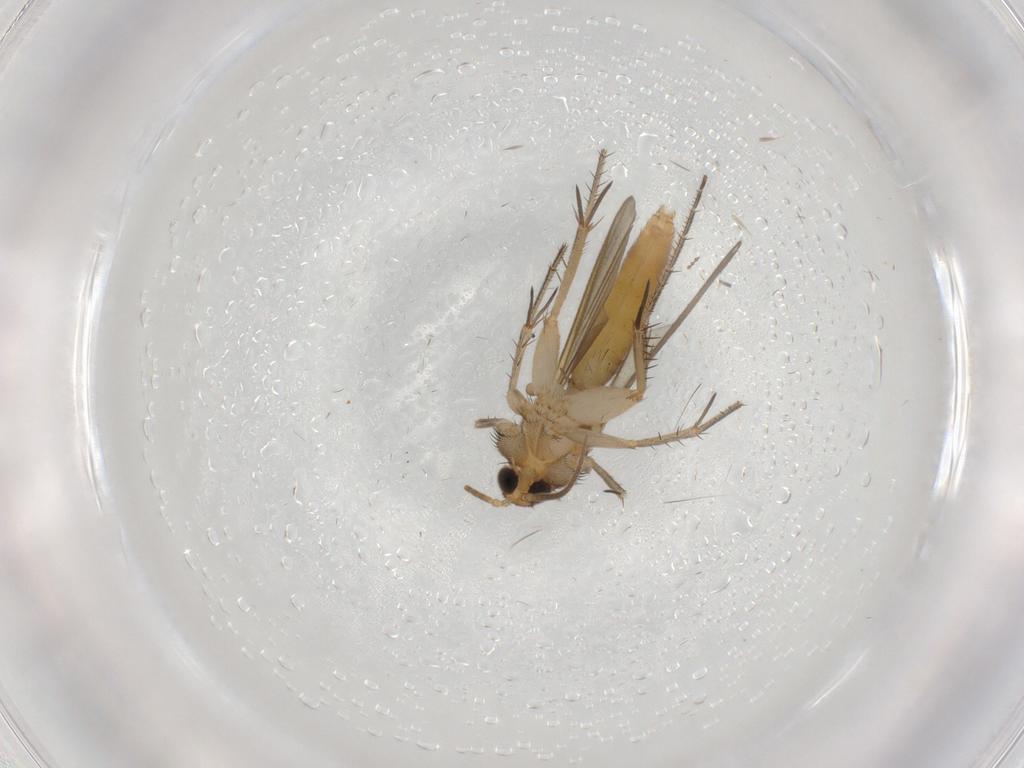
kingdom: Animalia
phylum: Arthropoda
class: Insecta
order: Diptera
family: Mycetophilidae
